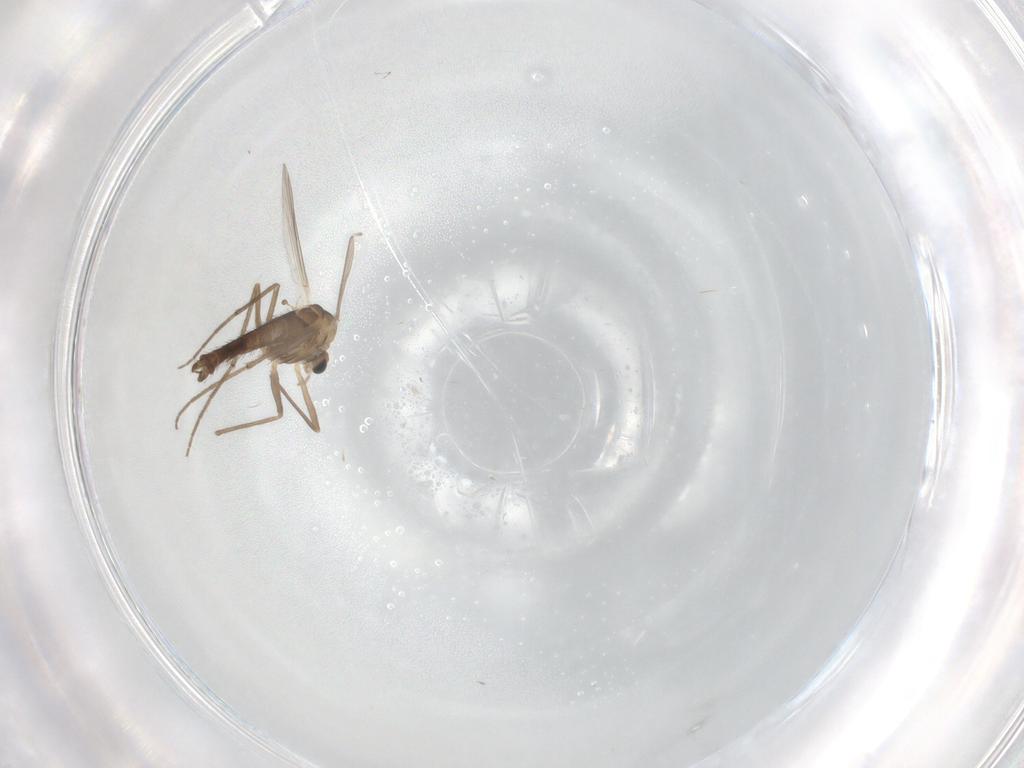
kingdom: Animalia
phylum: Arthropoda
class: Insecta
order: Diptera
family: Chironomidae
